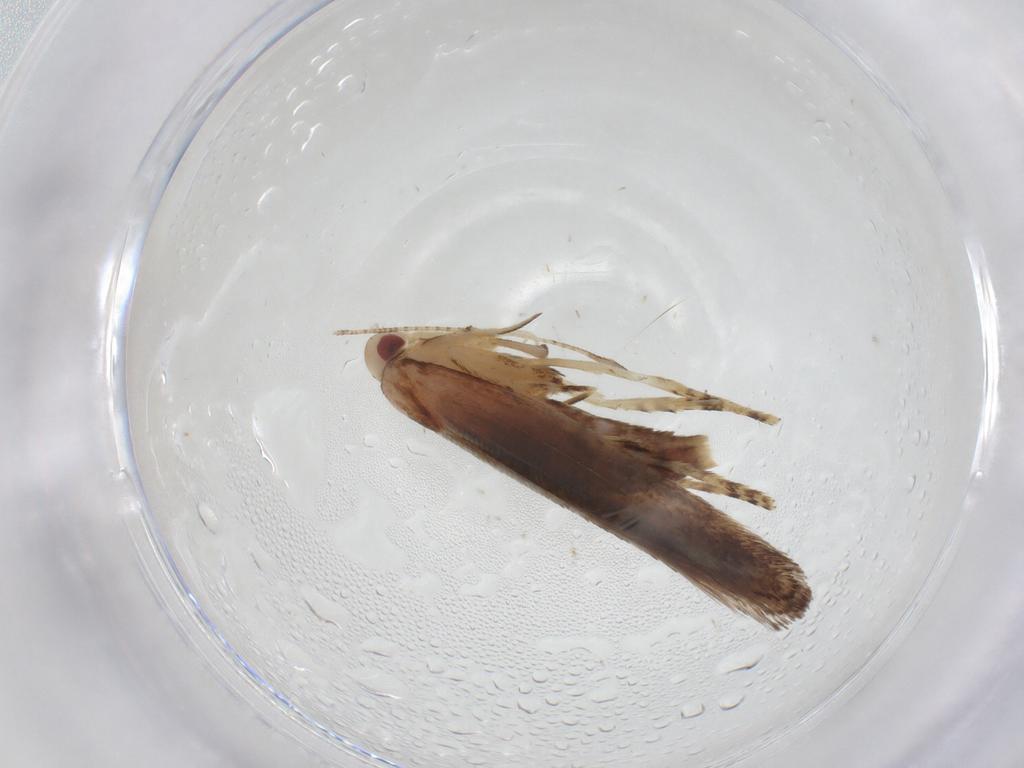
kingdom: Animalia
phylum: Arthropoda
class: Insecta
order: Lepidoptera
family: Erebidae
